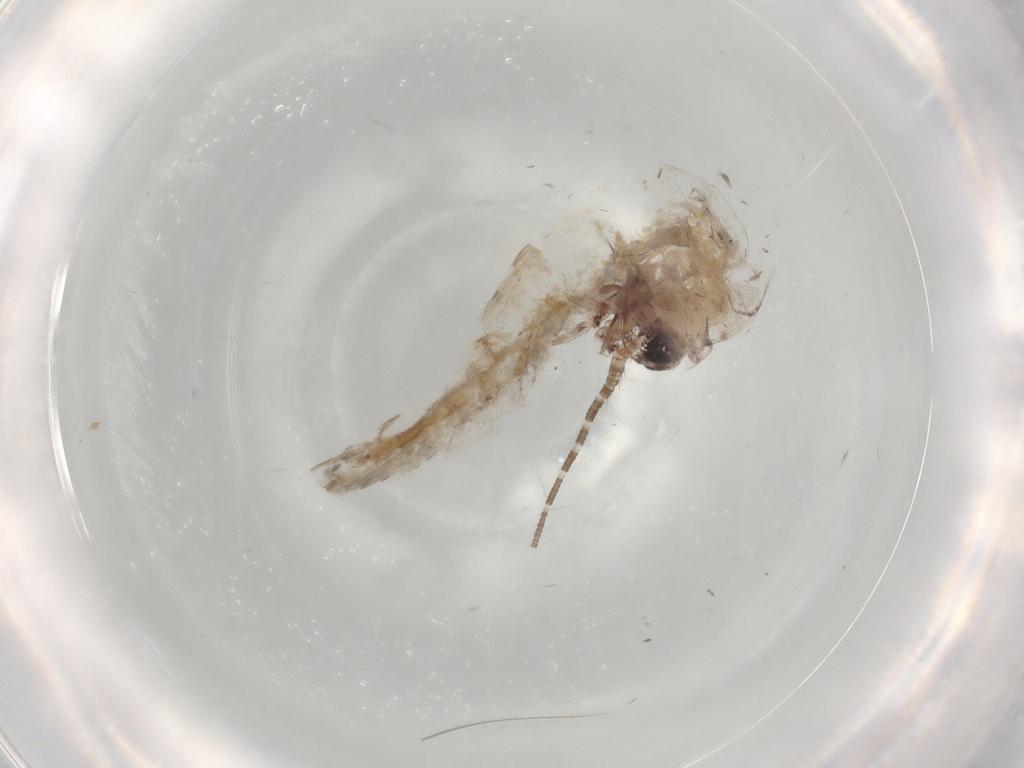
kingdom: Animalia
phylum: Arthropoda
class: Insecta
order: Archaeognatha
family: Meinertellidae
